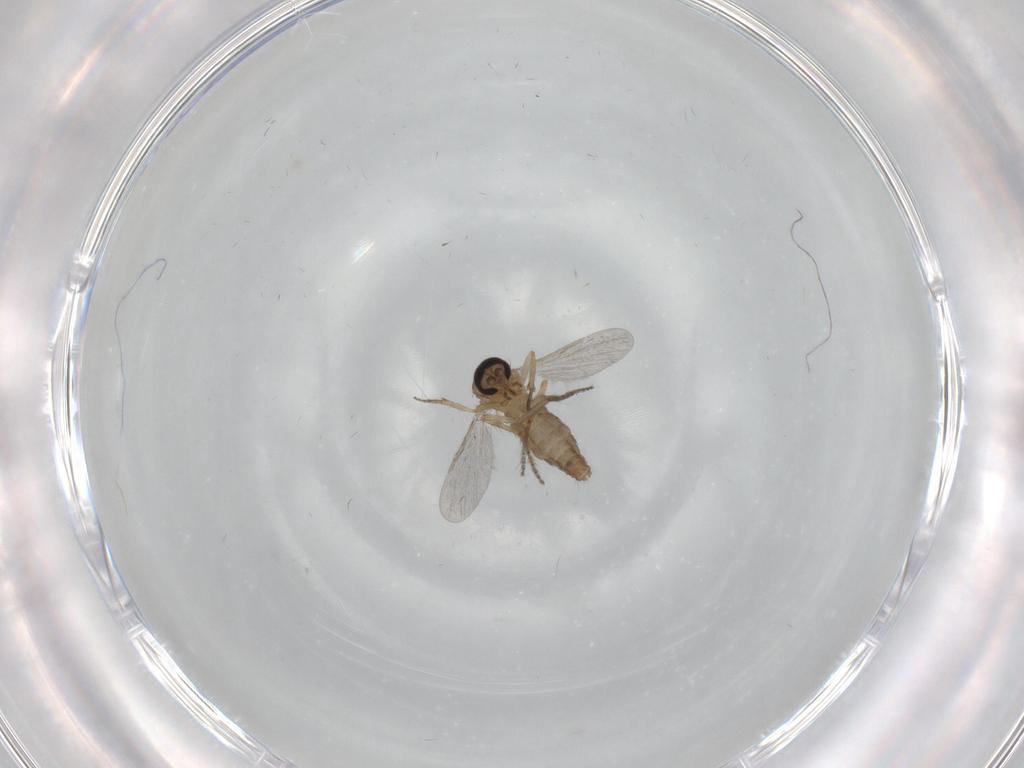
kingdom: Animalia
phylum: Arthropoda
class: Insecta
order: Diptera
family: Ceratopogonidae
